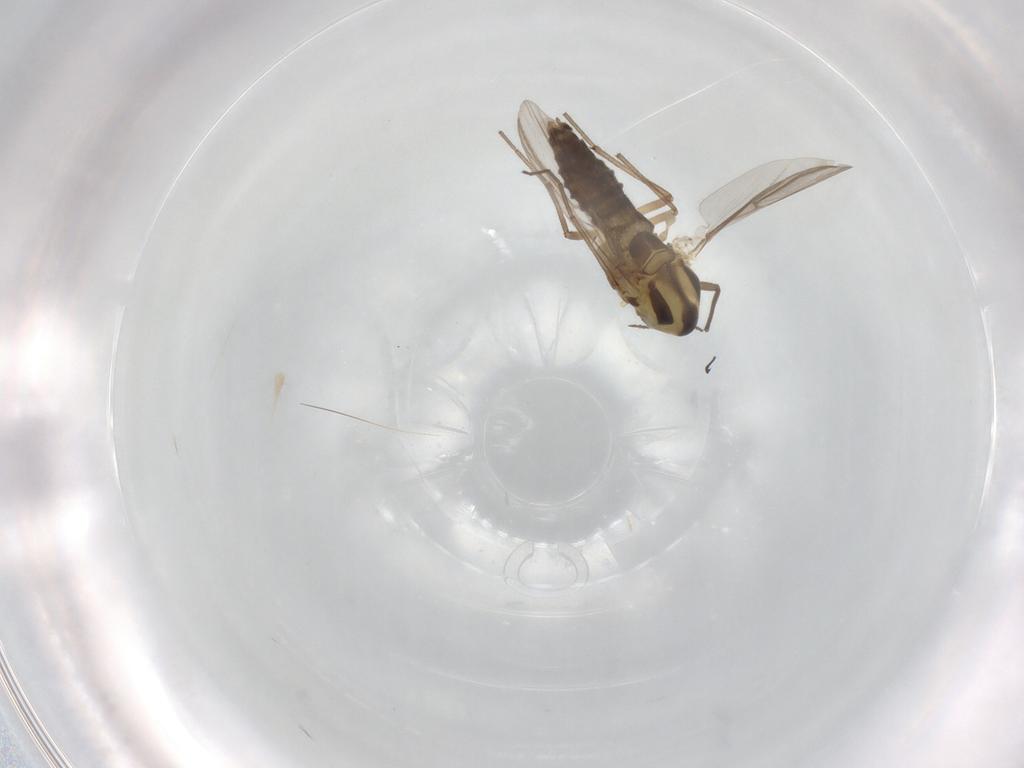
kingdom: Animalia
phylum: Arthropoda
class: Insecta
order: Diptera
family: Chironomidae
